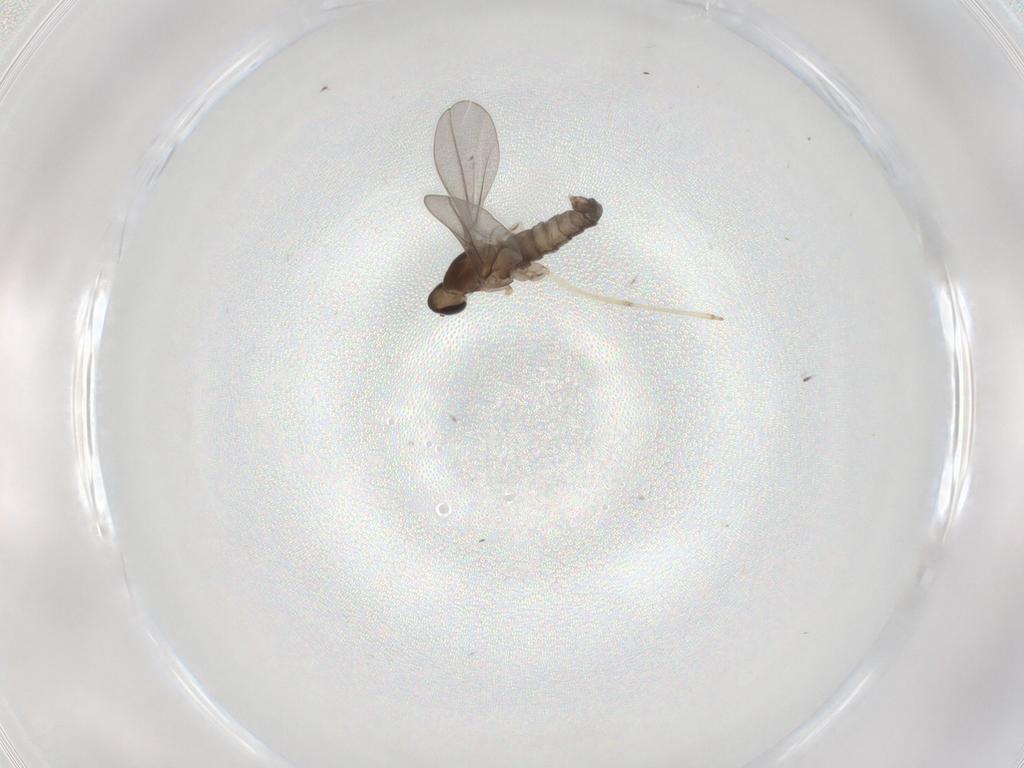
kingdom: Animalia
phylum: Arthropoda
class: Insecta
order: Diptera
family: Cecidomyiidae
